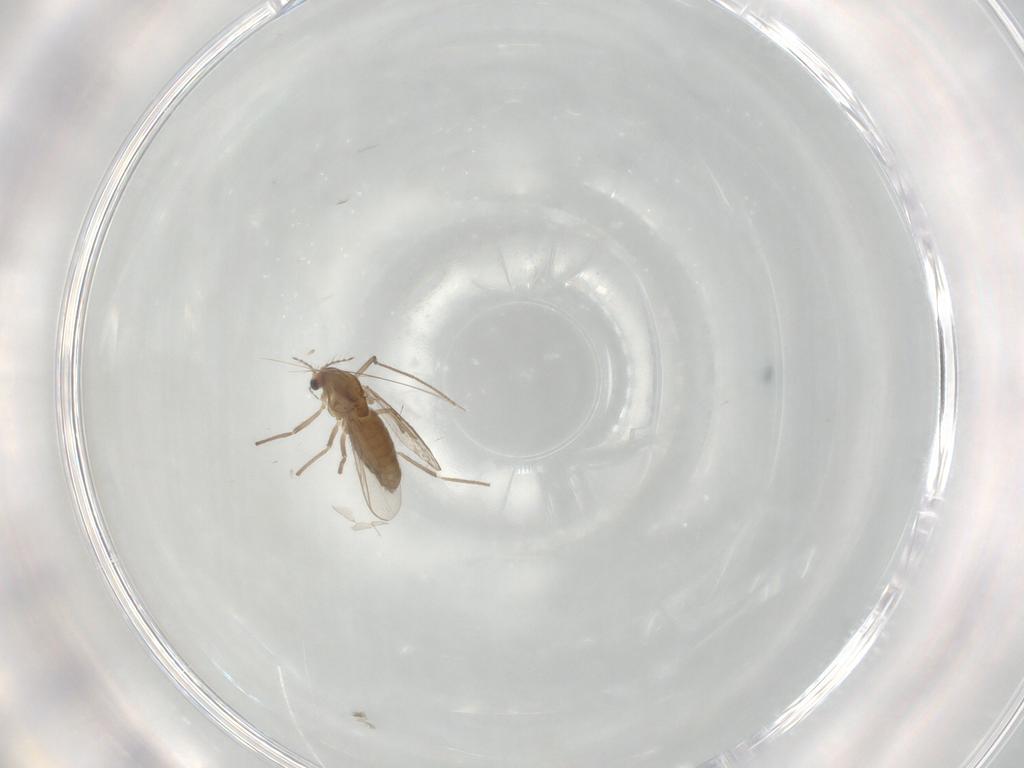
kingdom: Animalia
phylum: Arthropoda
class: Insecta
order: Diptera
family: Chironomidae
